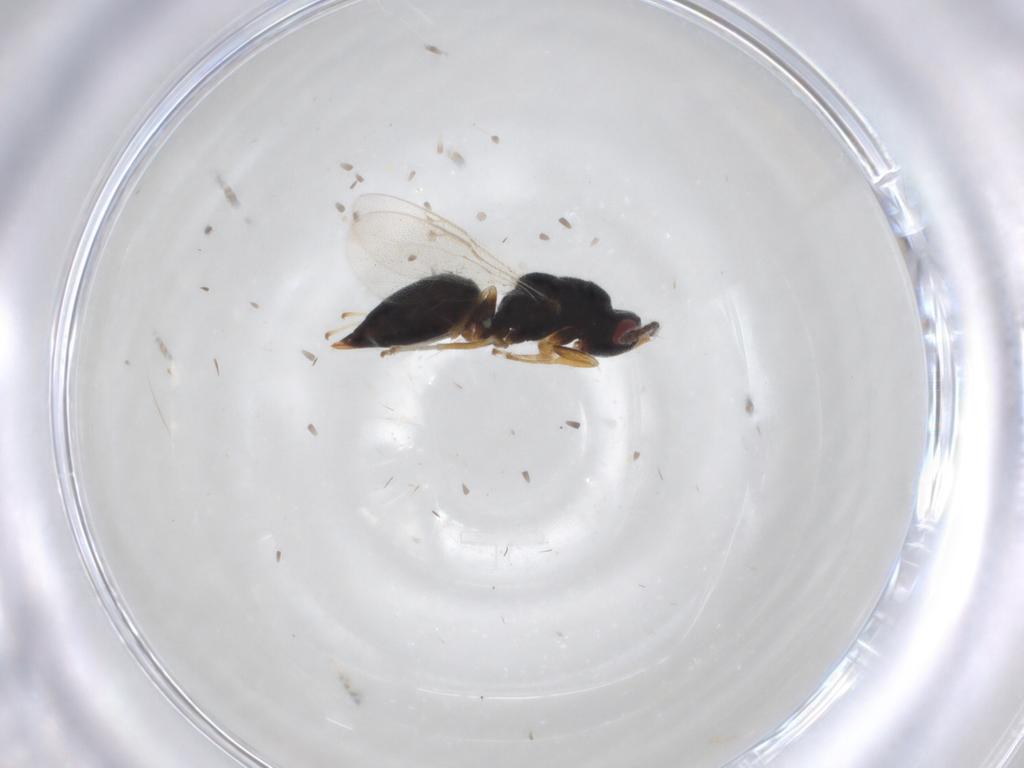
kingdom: Animalia
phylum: Arthropoda
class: Insecta
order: Hymenoptera
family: Eurytomidae
